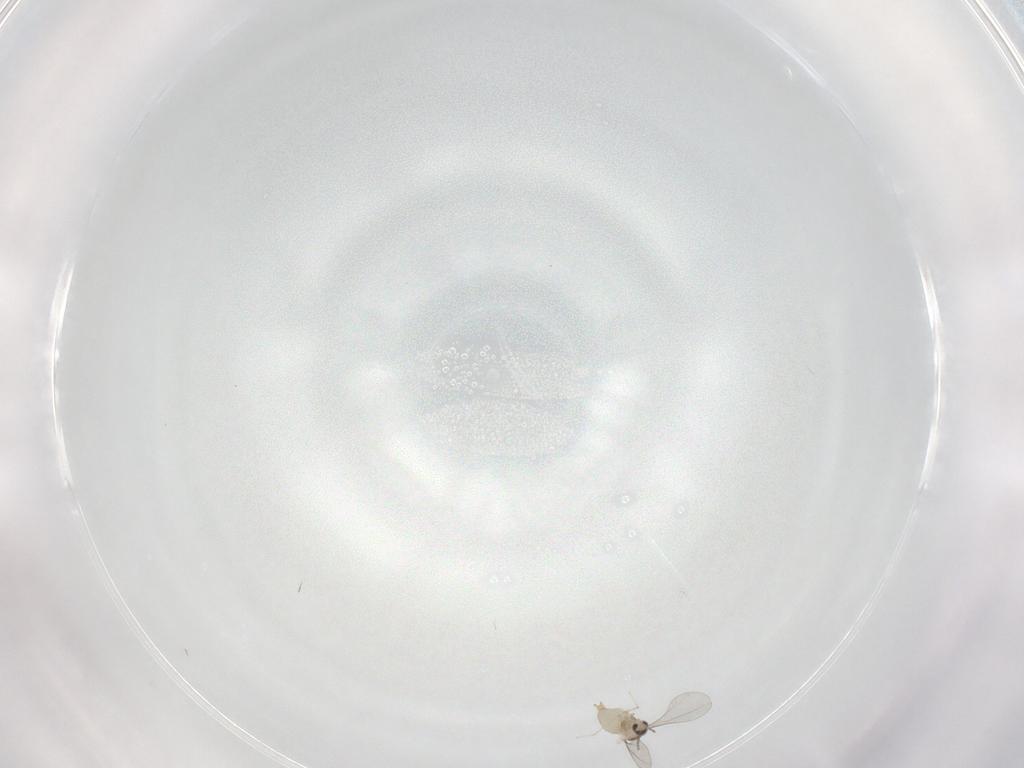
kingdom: Animalia
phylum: Arthropoda
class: Insecta
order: Diptera
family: Cecidomyiidae
